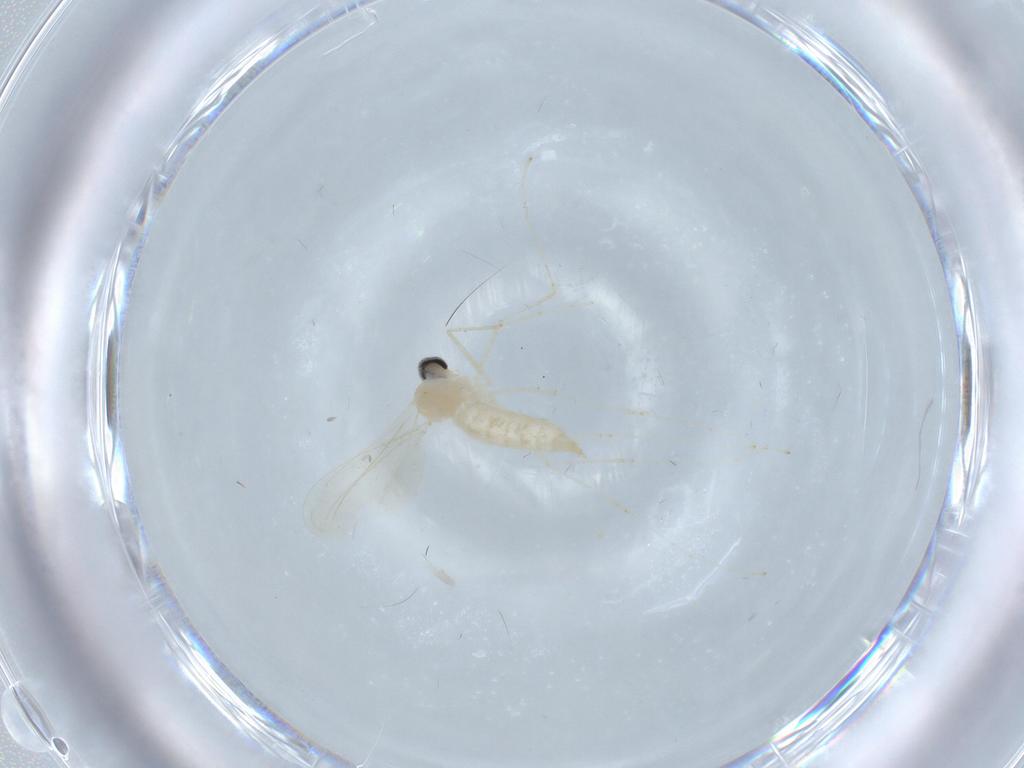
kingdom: Animalia
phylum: Arthropoda
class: Insecta
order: Diptera
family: Cecidomyiidae
